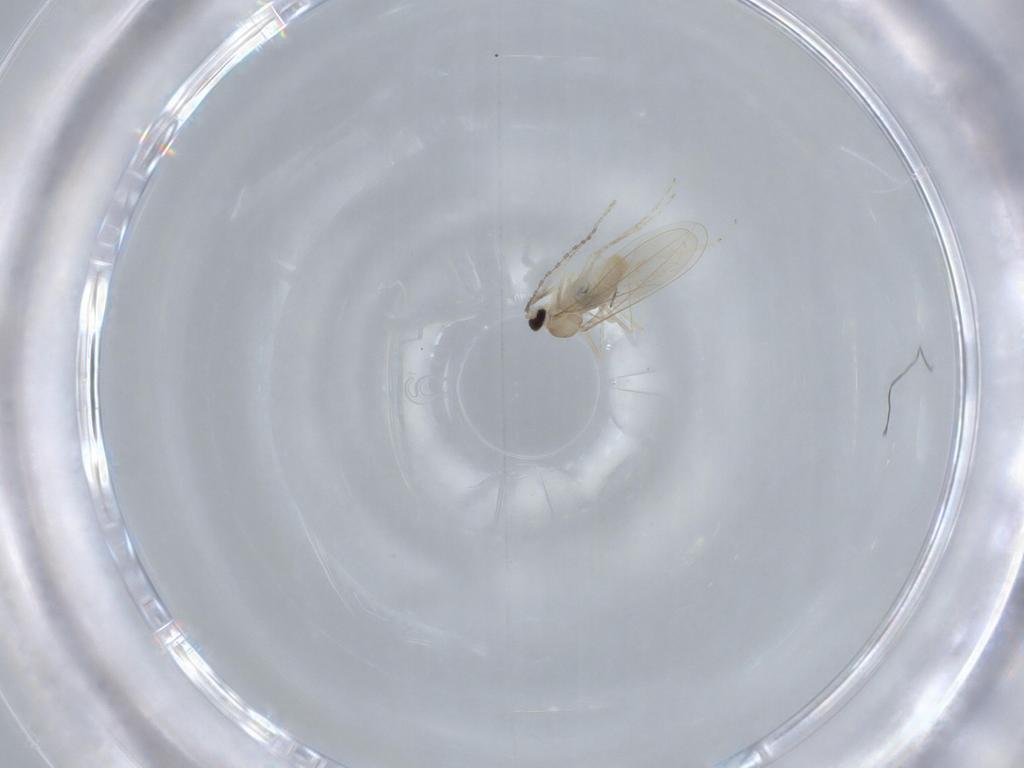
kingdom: Animalia
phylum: Arthropoda
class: Insecta
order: Diptera
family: Cecidomyiidae
